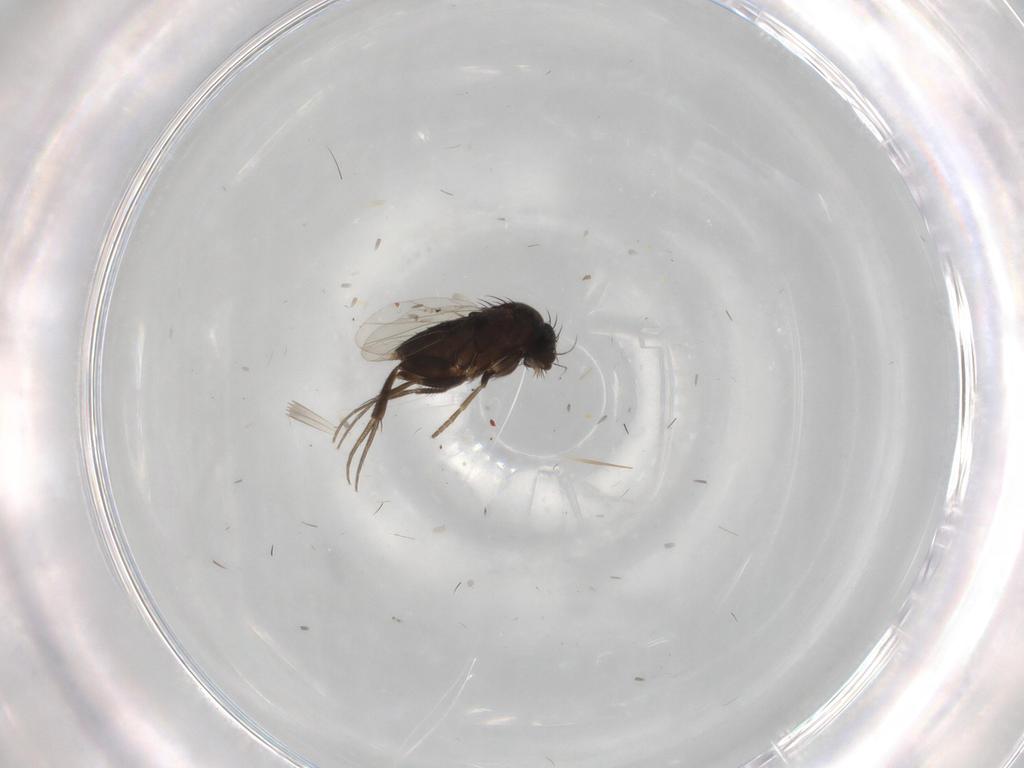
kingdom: Animalia
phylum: Arthropoda
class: Insecta
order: Diptera
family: Phoridae
